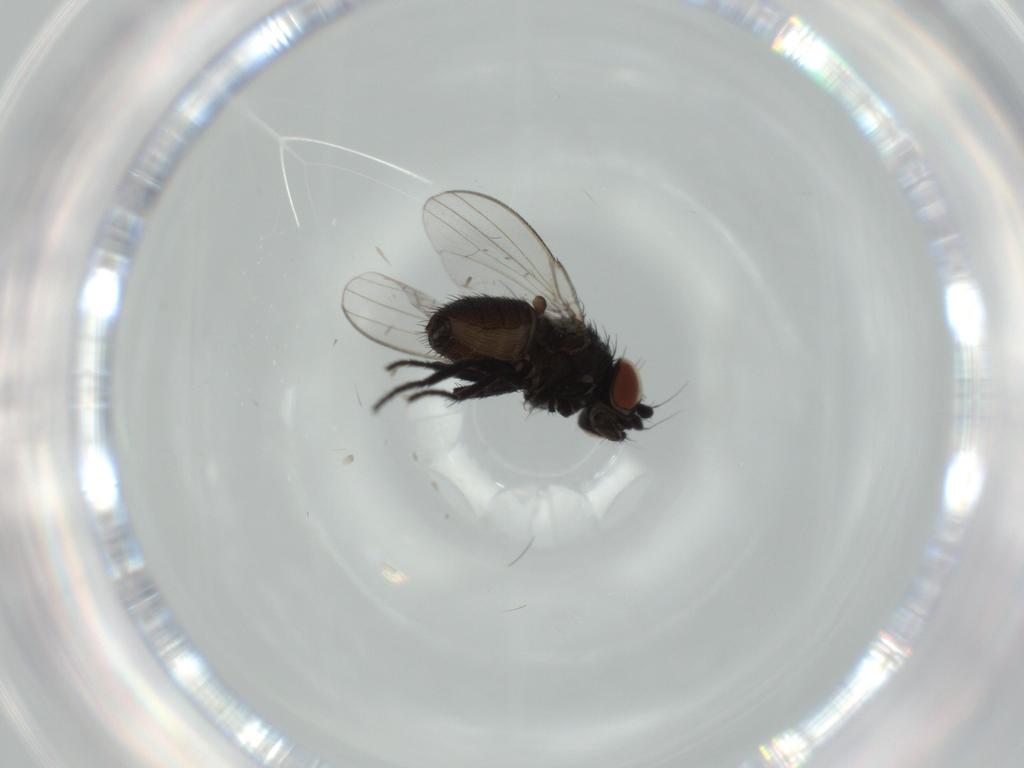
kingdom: Animalia
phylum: Arthropoda
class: Insecta
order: Diptera
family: Milichiidae
